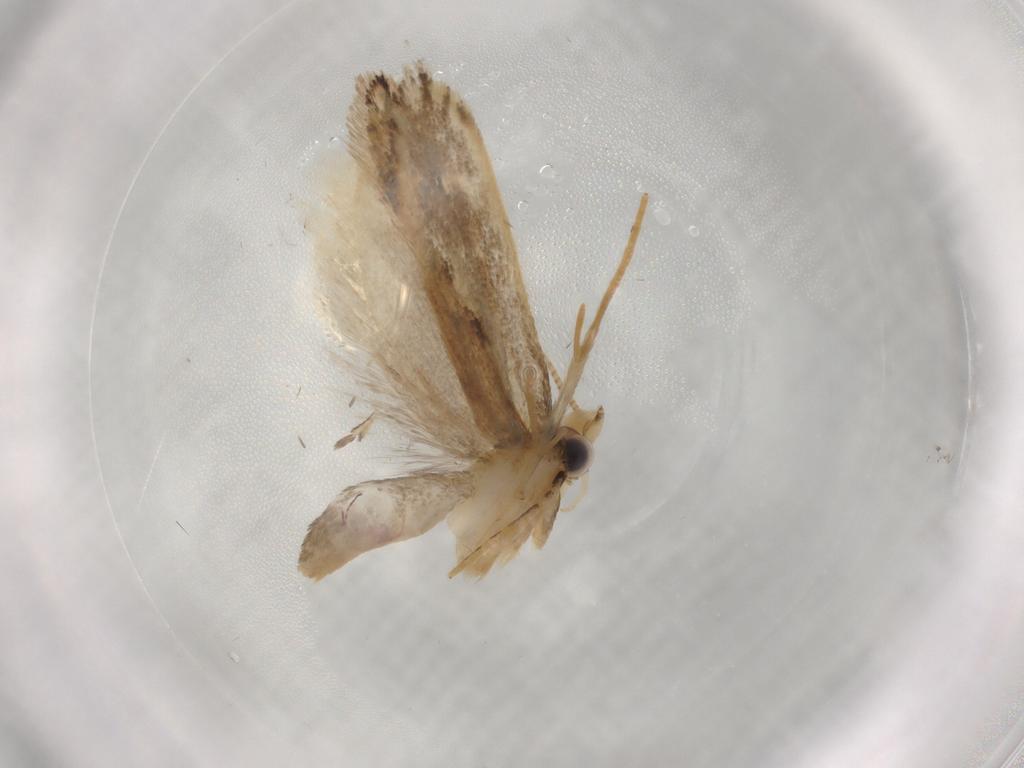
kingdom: Animalia
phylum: Arthropoda
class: Insecta
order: Lepidoptera
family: Nepticulidae
